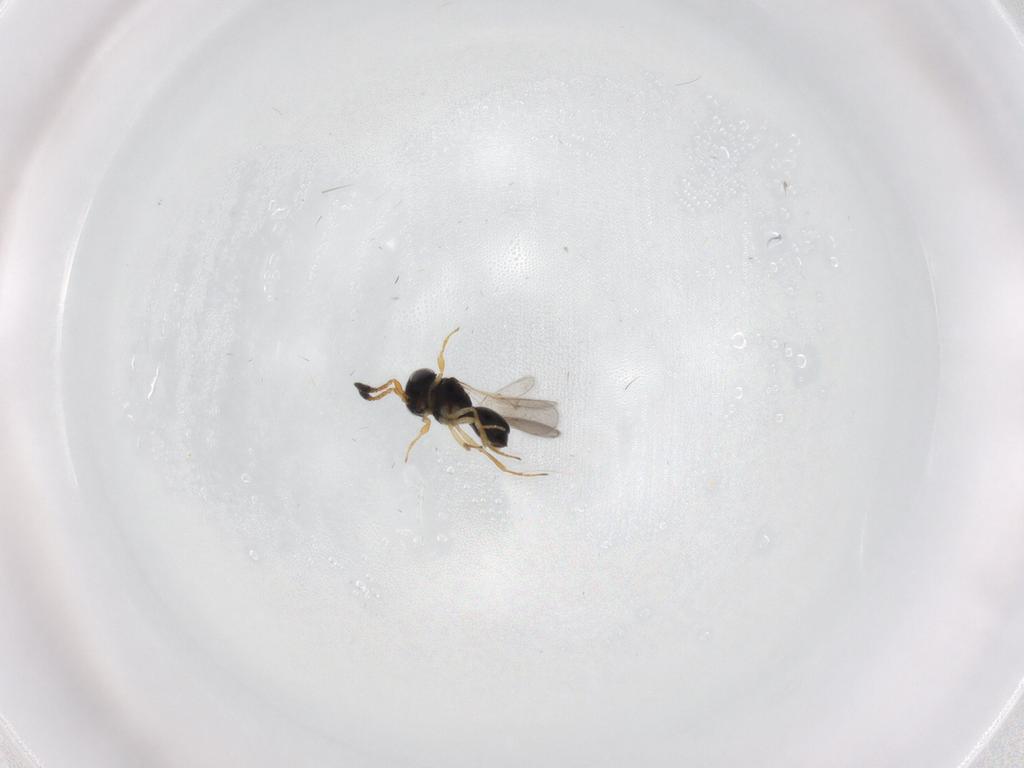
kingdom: Animalia
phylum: Arthropoda
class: Insecta
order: Hymenoptera
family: Scelionidae
